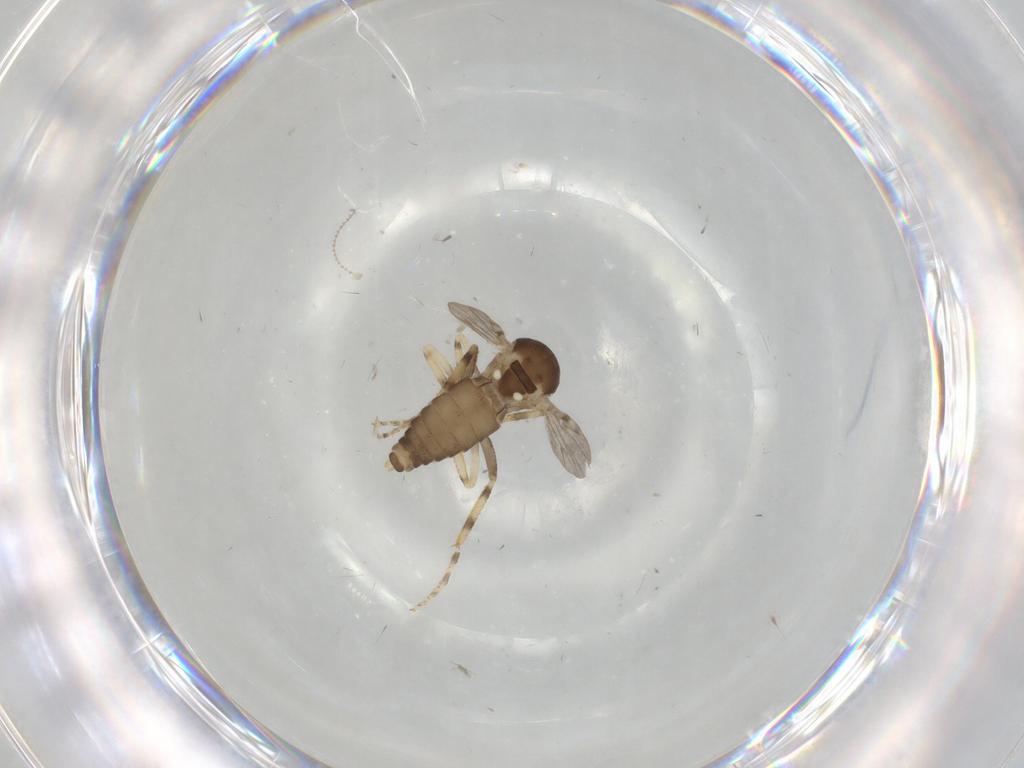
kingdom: Animalia
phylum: Arthropoda
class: Insecta
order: Diptera
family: Ceratopogonidae
